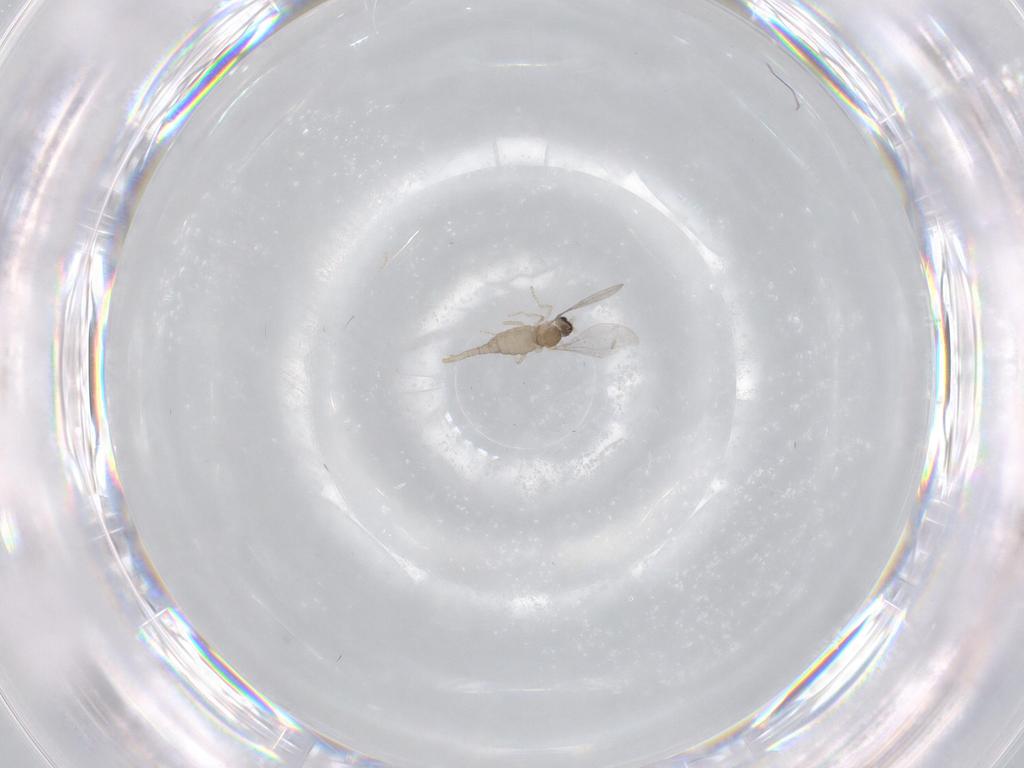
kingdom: Animalia
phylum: Arthropoda
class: Insecta
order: Diptera
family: Cecidomyiidae
